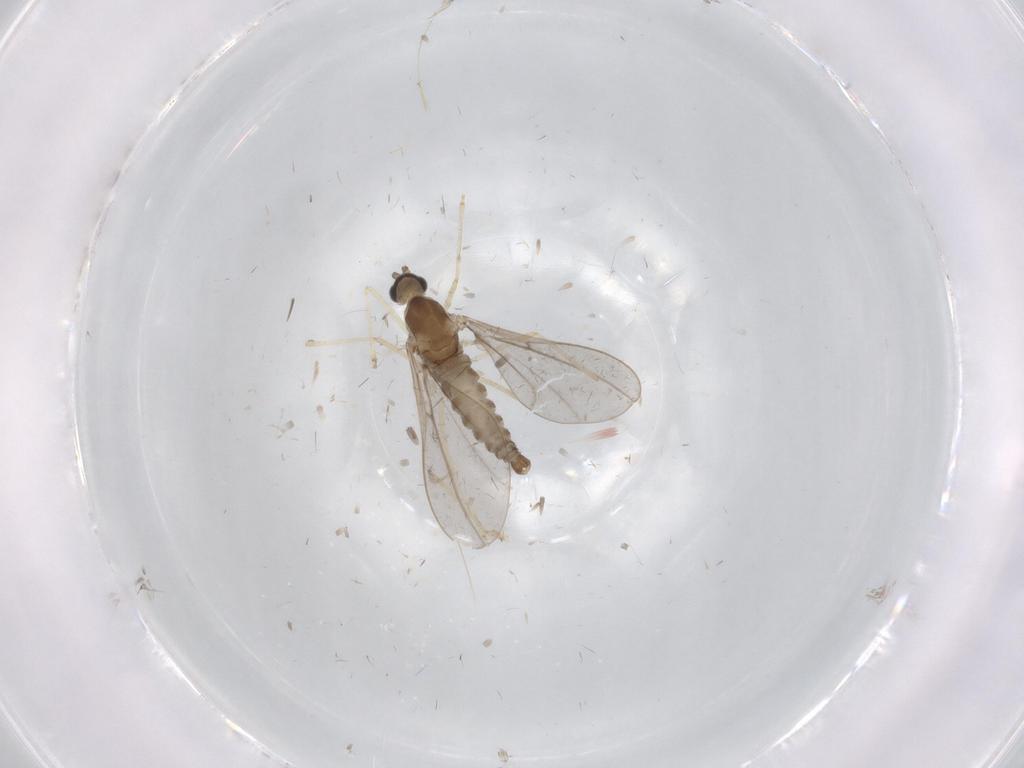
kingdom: Animalia
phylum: Arthropoda
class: Insecta
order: Diptera
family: Cecidomyiidae
